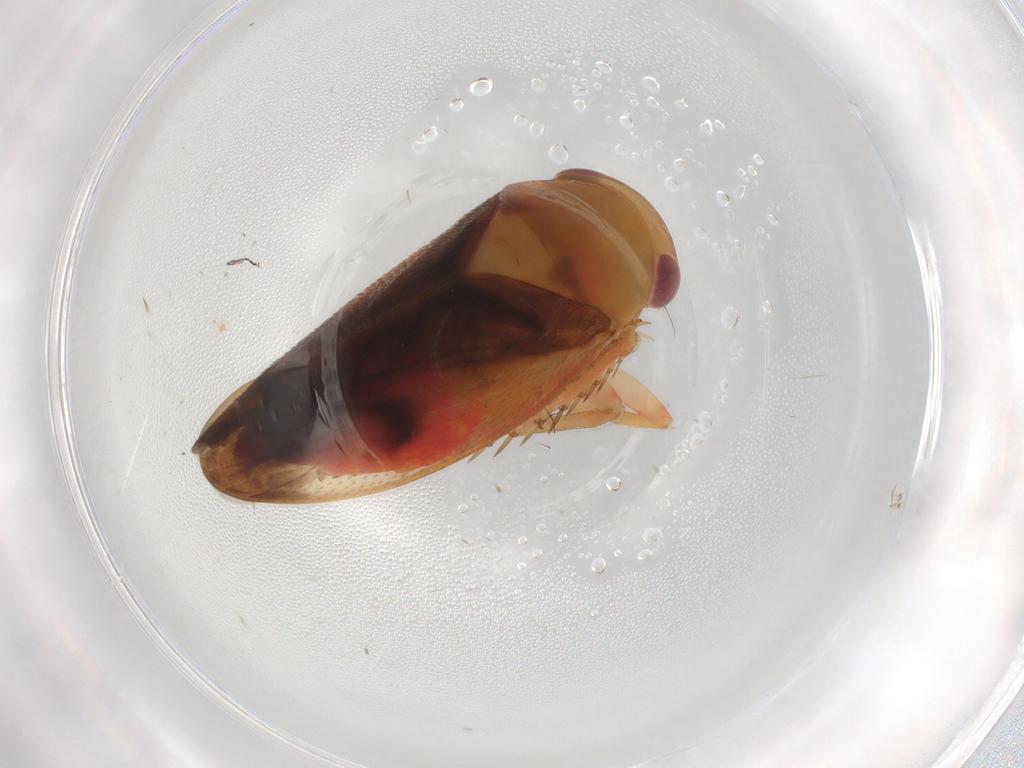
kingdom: Animalia
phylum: Arthropoda
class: Insecta
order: Hemiptera
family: Cicadellidae
